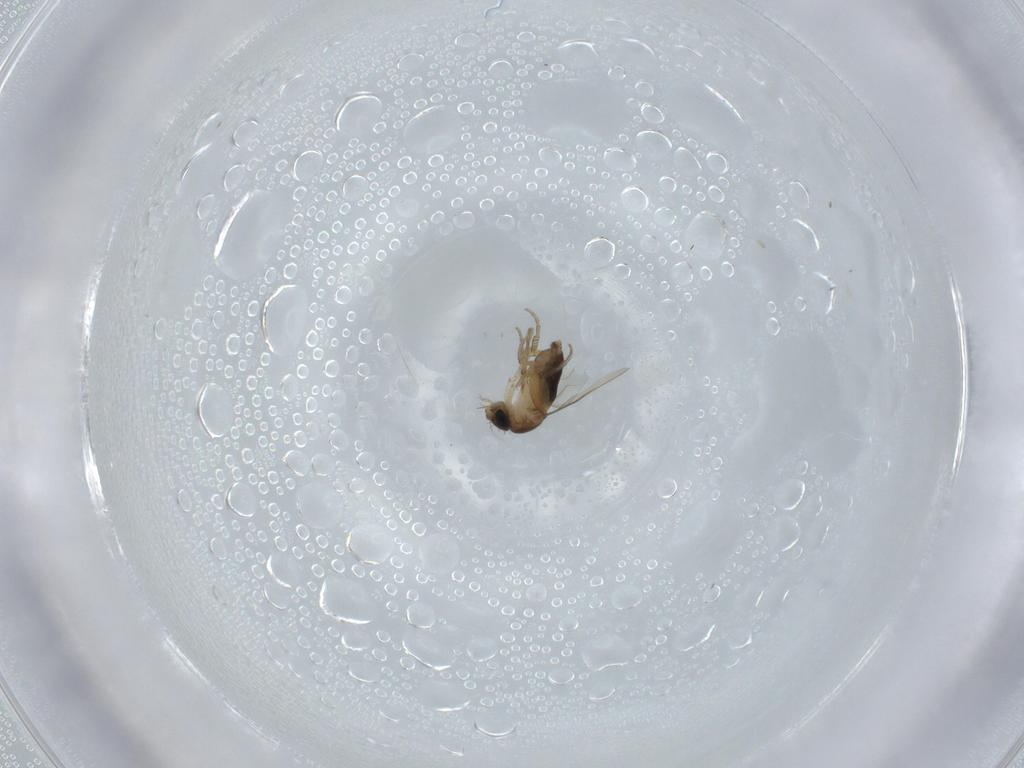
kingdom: Animalia
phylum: Arthropoda
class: Insecta
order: Diptera
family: Phoridae
